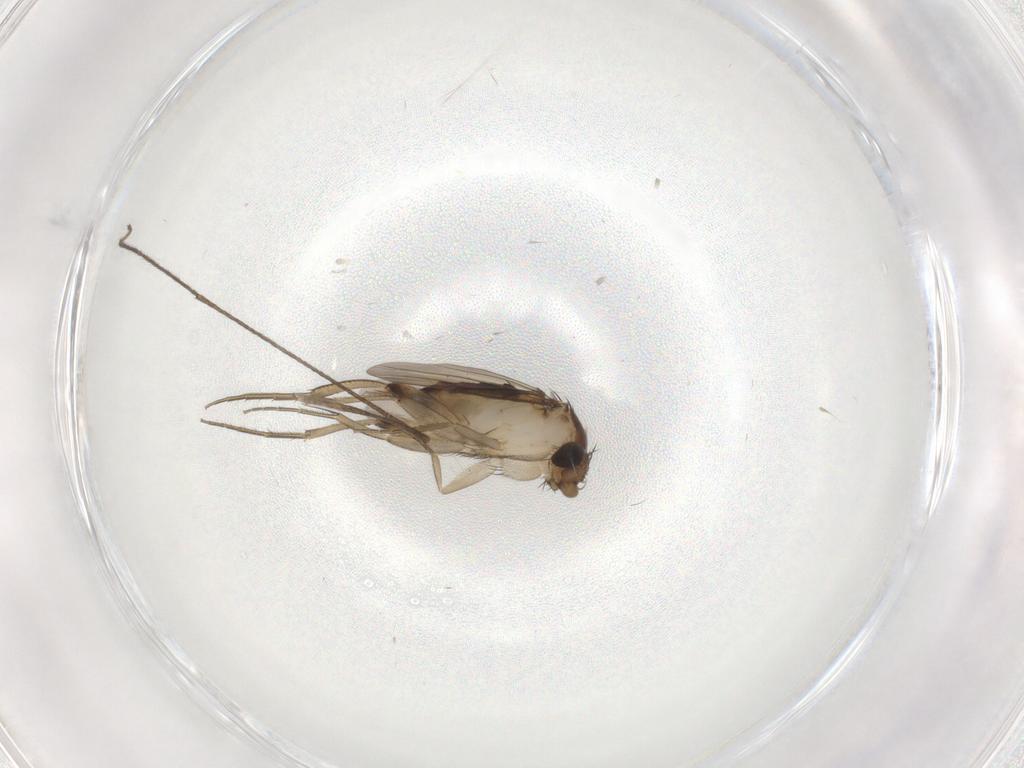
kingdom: Animalia
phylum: Arthropoda
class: Insecta
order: Diptera
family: Phoridae
